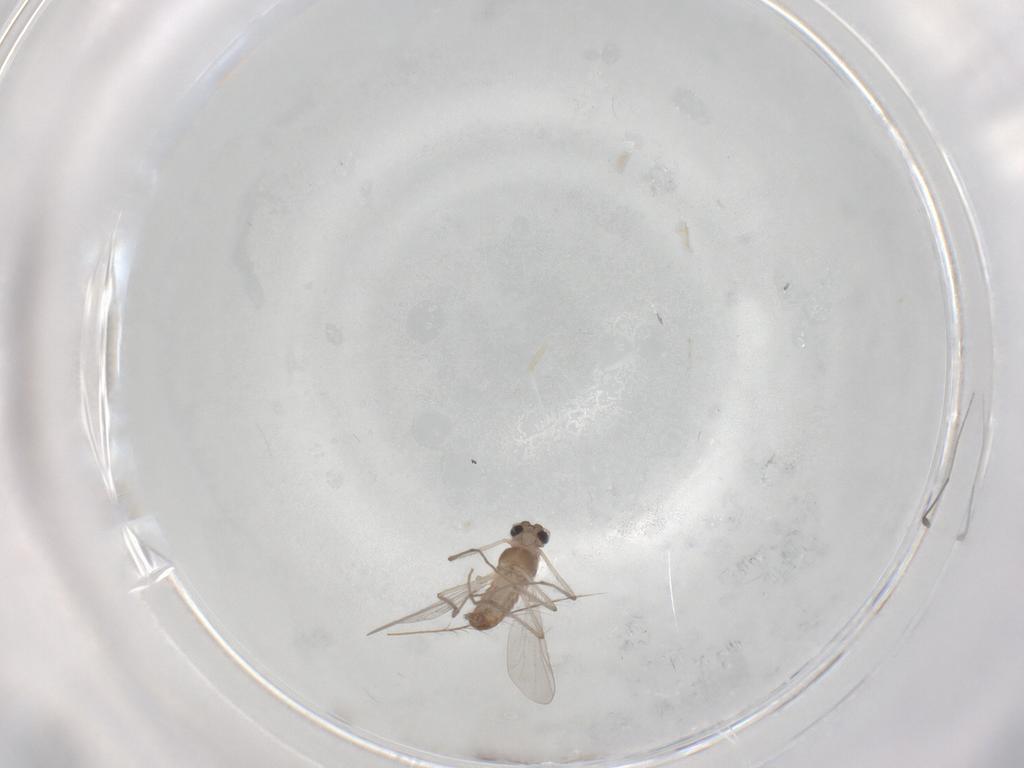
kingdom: Animalia
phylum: Arthropoda
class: Insecta
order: Diptera
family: Chironomidae
